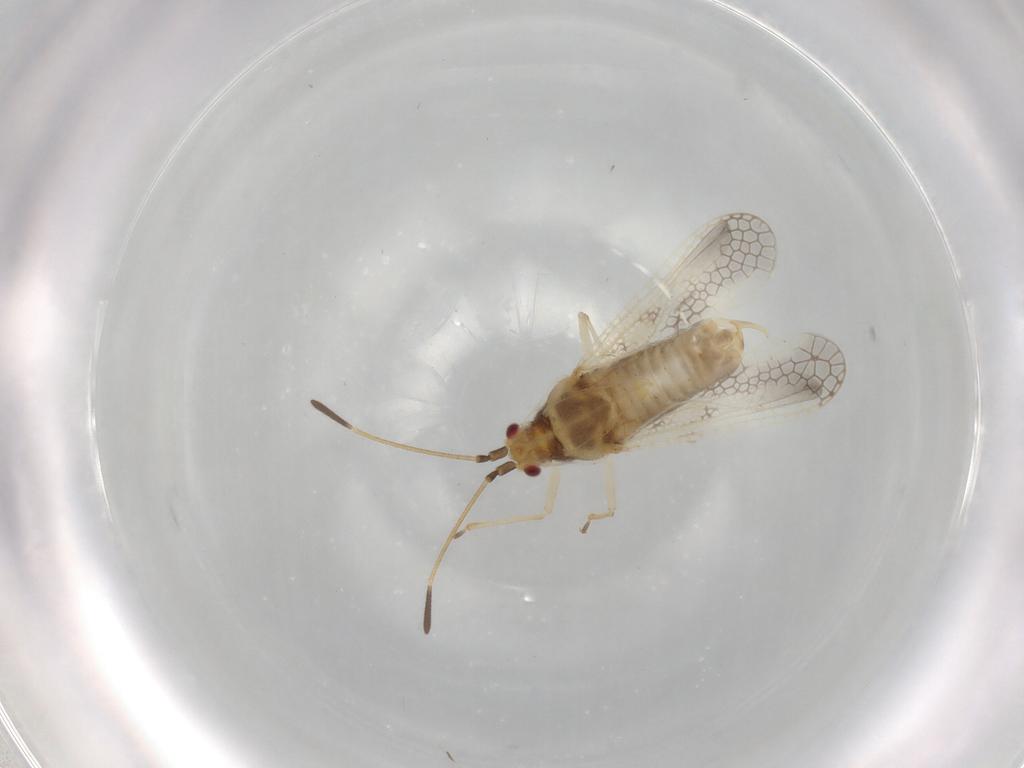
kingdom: Animalia
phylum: Arthropoda
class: Insecta
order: Hemiptera
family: Tingidae
